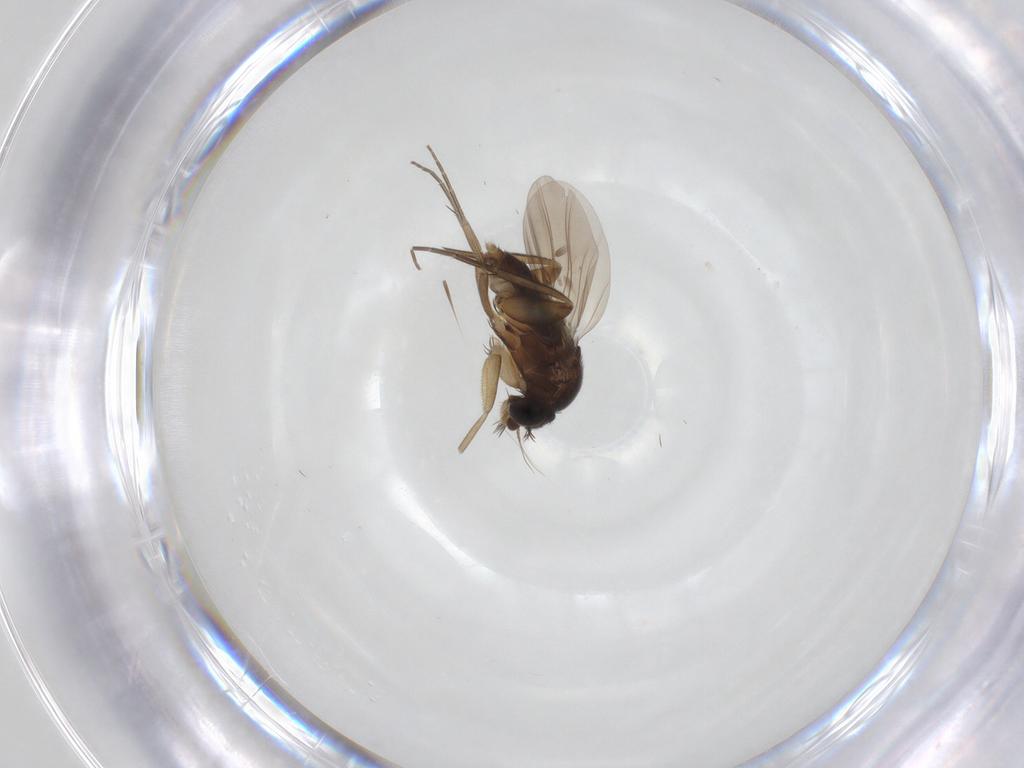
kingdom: Animalia
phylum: Arthropoda
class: Insecta
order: Diptera
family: Phoridae
